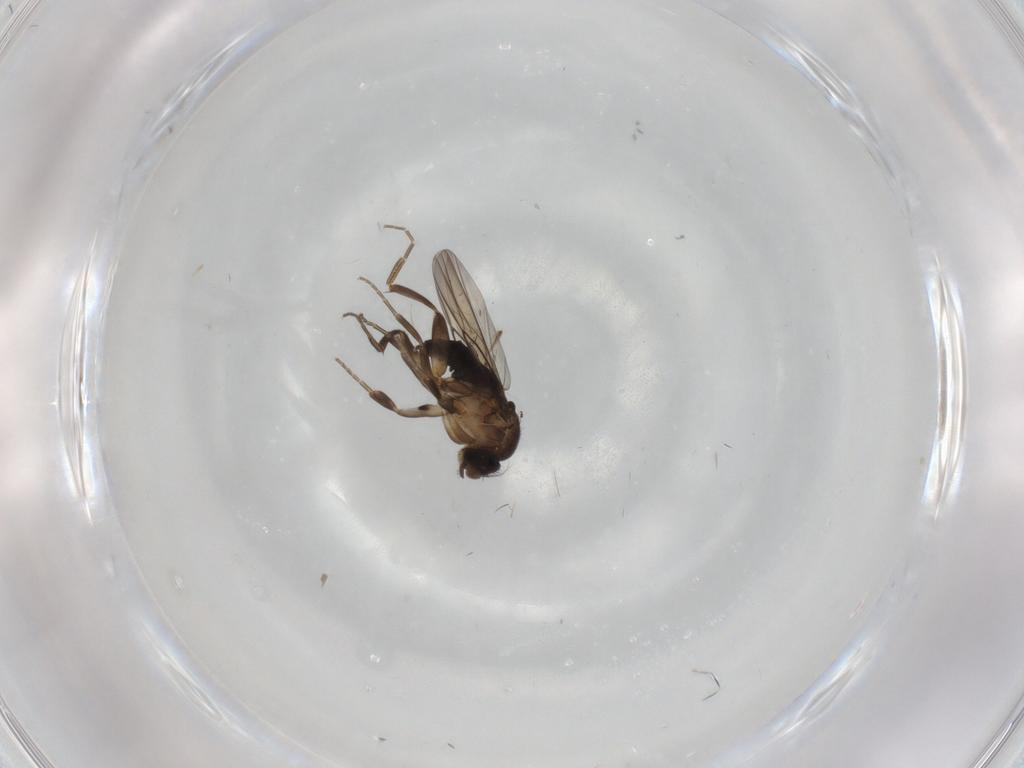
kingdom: Animalia
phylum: Arthropoda
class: Insecta
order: Diptera
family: Phoridae
